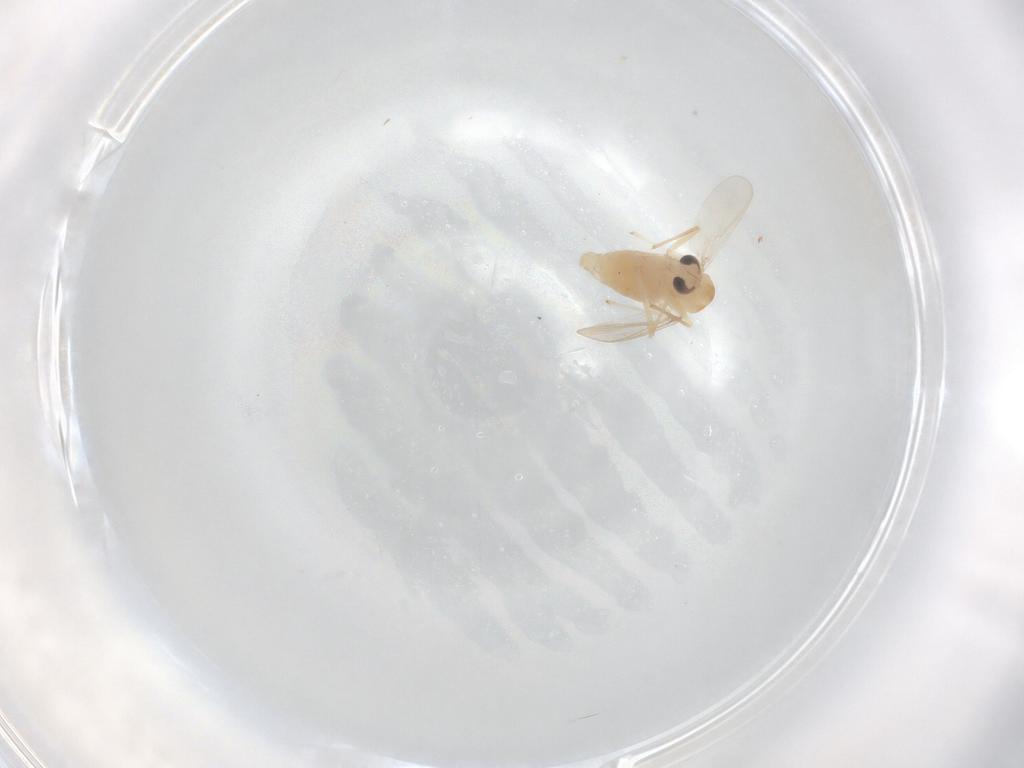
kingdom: Animalia
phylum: Arthropoda
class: Insecta
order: Diptera
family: Chironomidae
